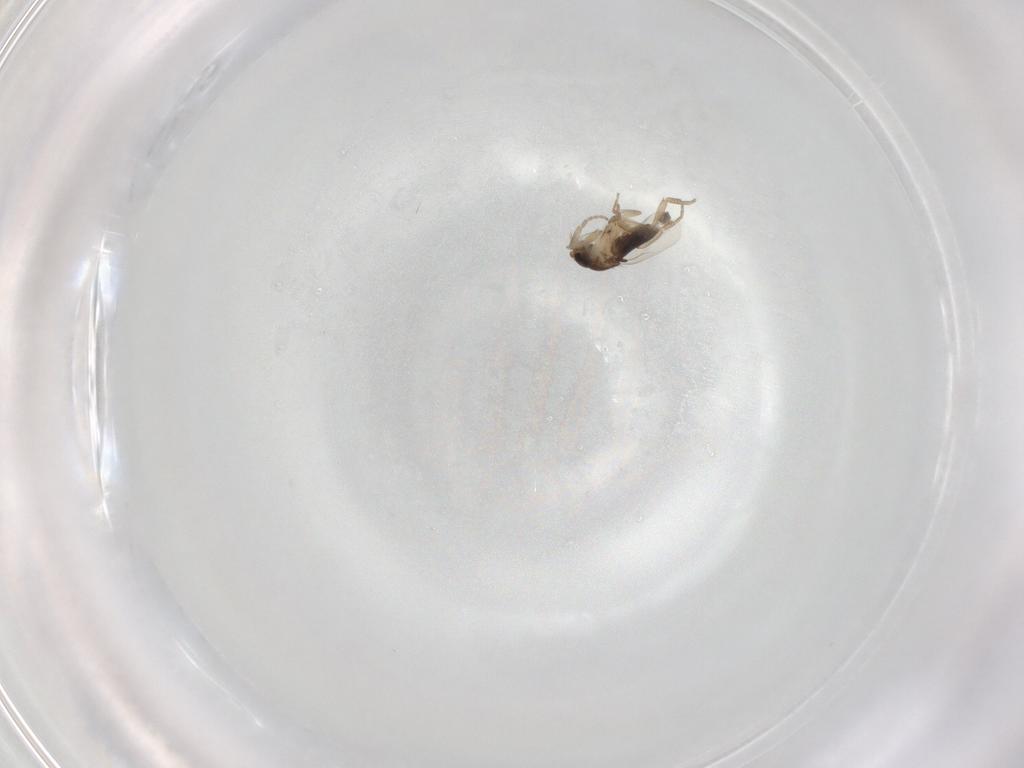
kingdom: Animalia
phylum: Arthropoda
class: Insecta
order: Diptera
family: Phoridae
